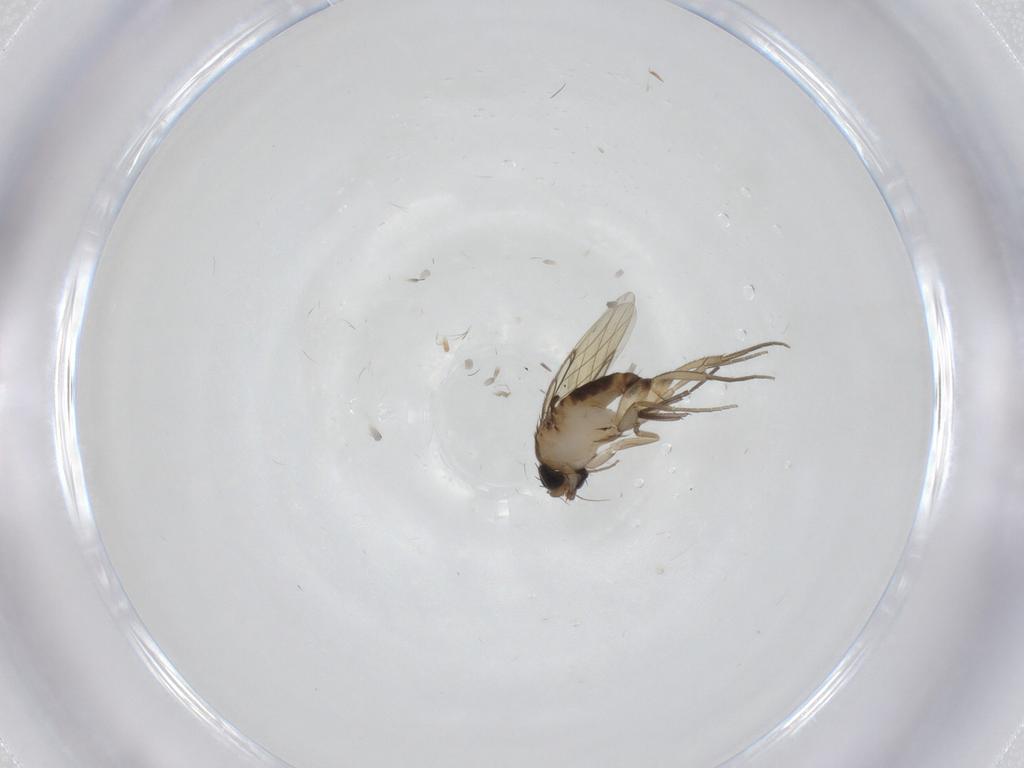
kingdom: Animalia
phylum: Arthropoda
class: Insecta
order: Diptera
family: Phoridae
